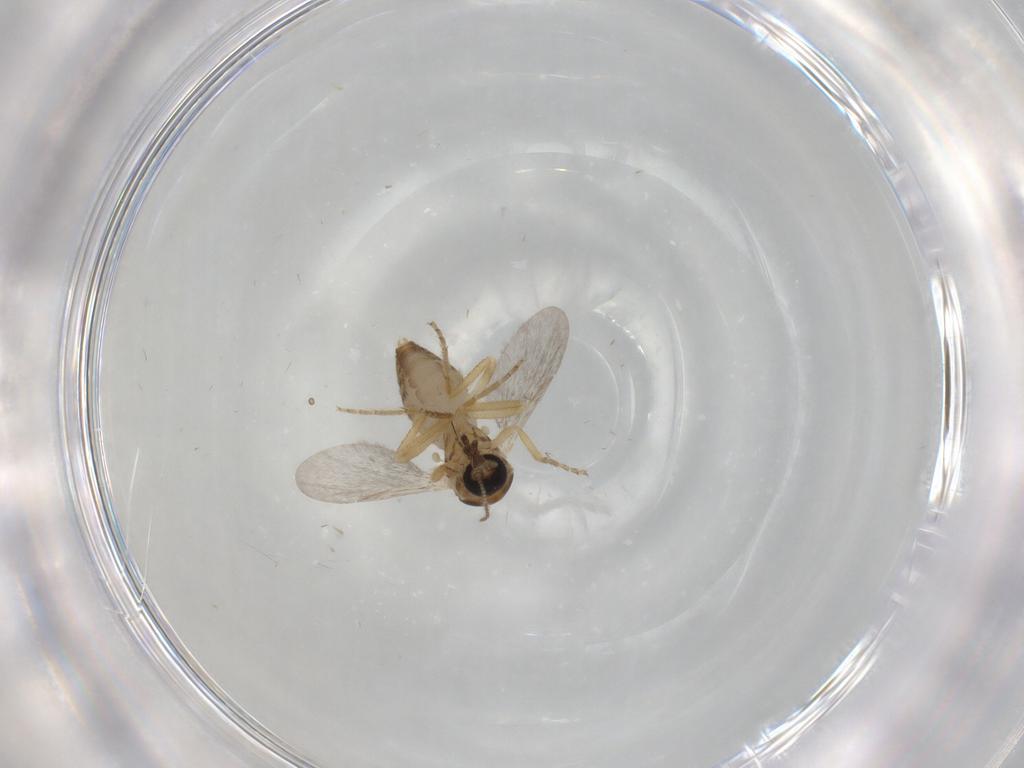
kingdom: Animalia
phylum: Arthropoda
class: Insecta
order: Diptera
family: Ceratopogonidae
